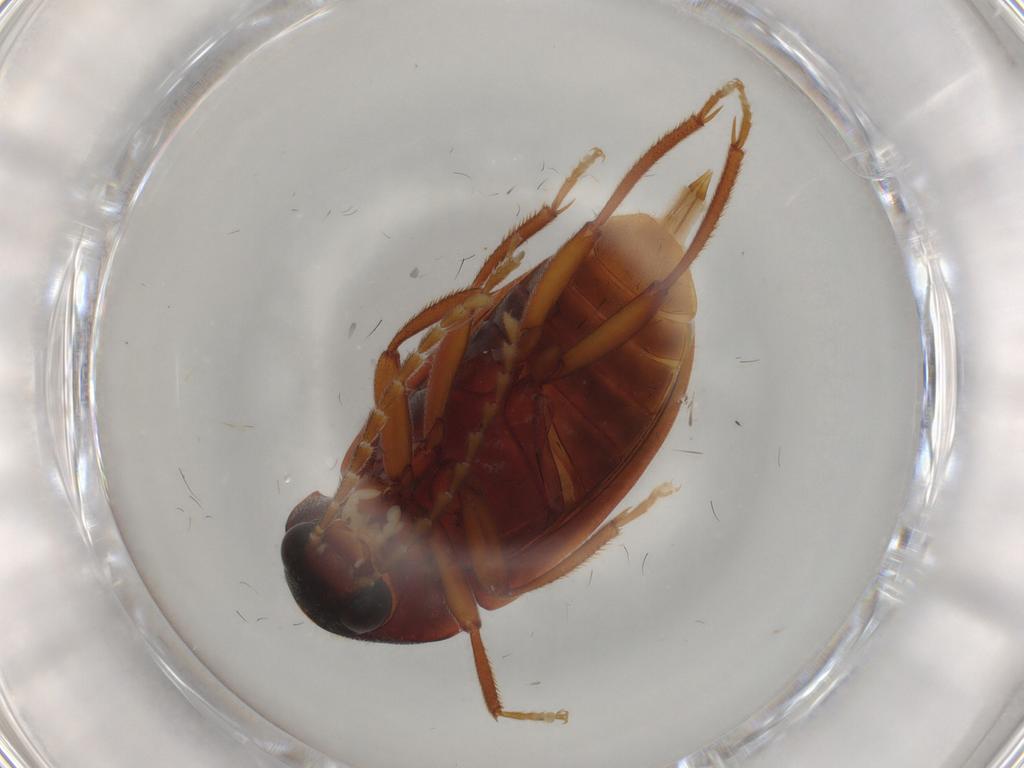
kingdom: Animalia
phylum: Arthropoda
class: Insecta
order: Coleoptera
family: Ptilodactylidae
